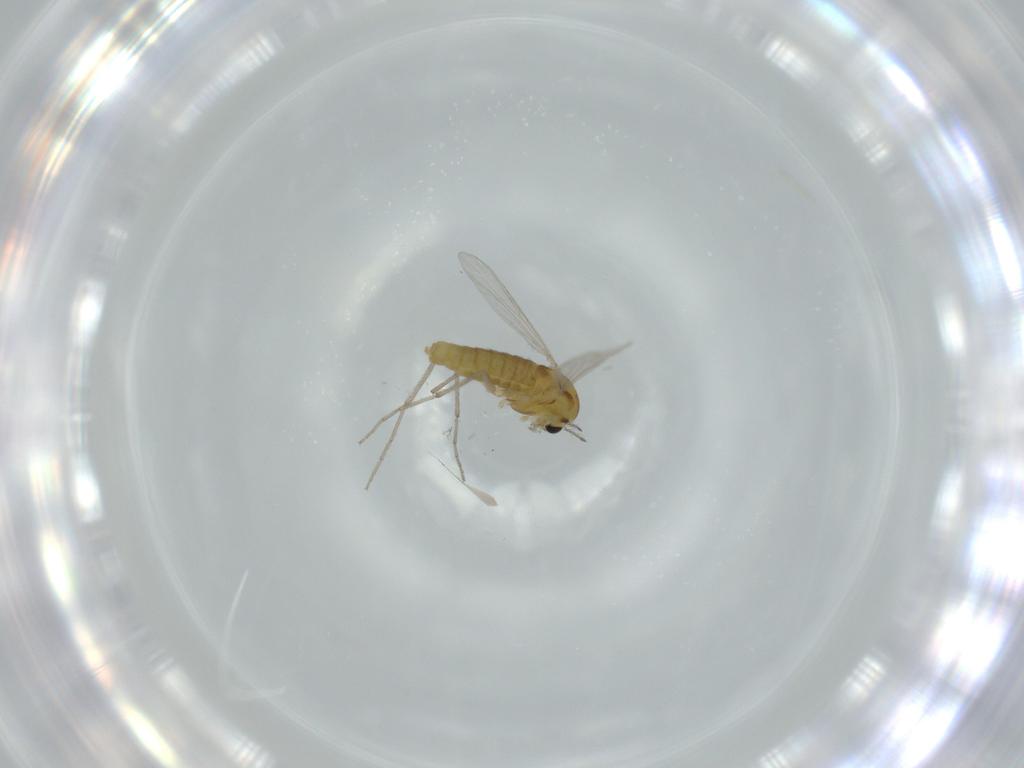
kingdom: Animalia
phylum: Arthropoda
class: Insecta
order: Diptera
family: Chironomidae
